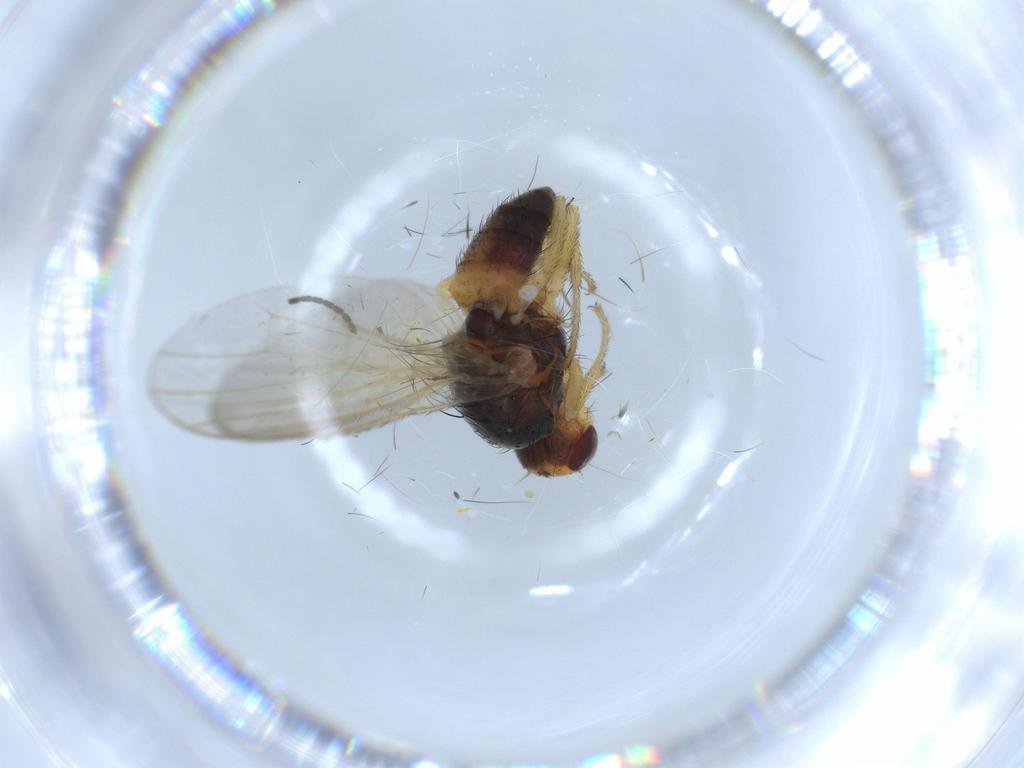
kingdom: Animalia
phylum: Arthropoda
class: Insecta
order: Diptera
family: Heleomyzidae
